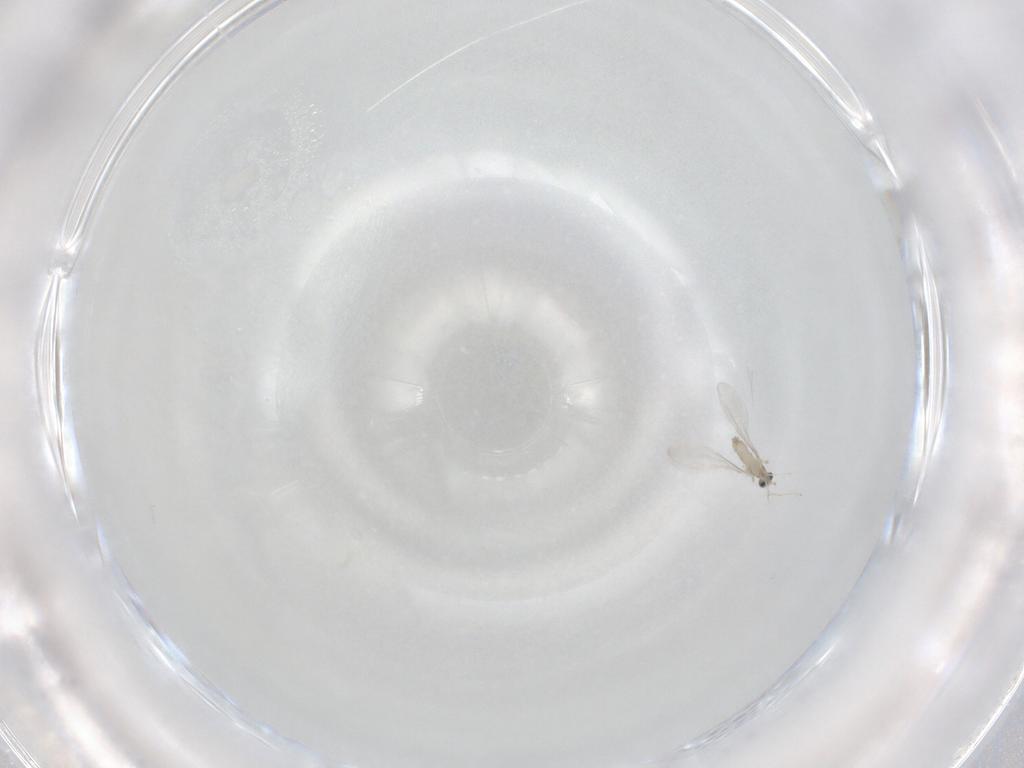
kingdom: Animalia
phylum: Arthropoda
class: Insecta
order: Diptera
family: Cecidomyiidae
